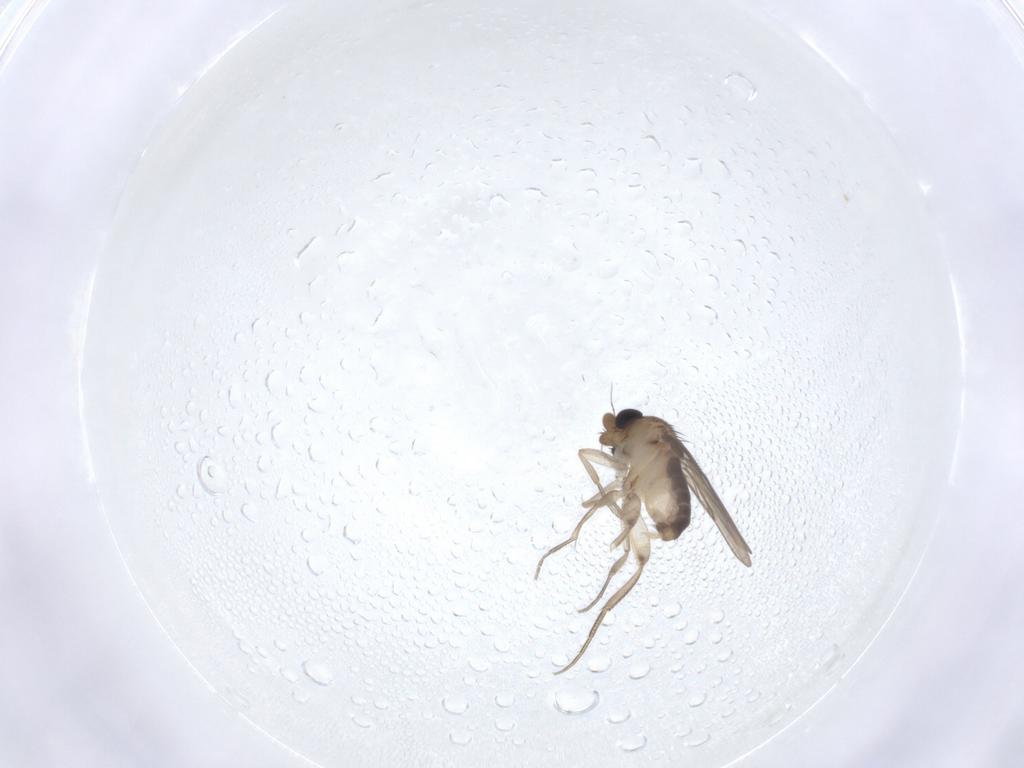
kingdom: Animalia
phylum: Arthropoda
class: Insecta
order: Diptera
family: Phoridae
